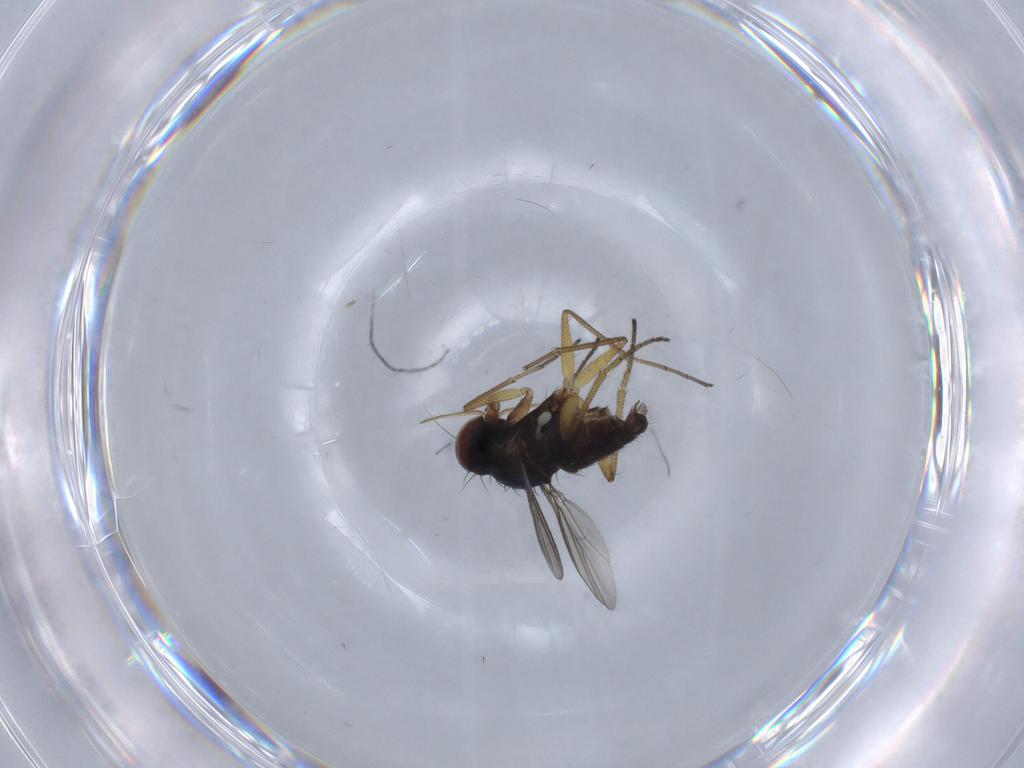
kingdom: Animalia
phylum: Arthropoda
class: Insecta
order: Diptera
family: Dolichopodidae
